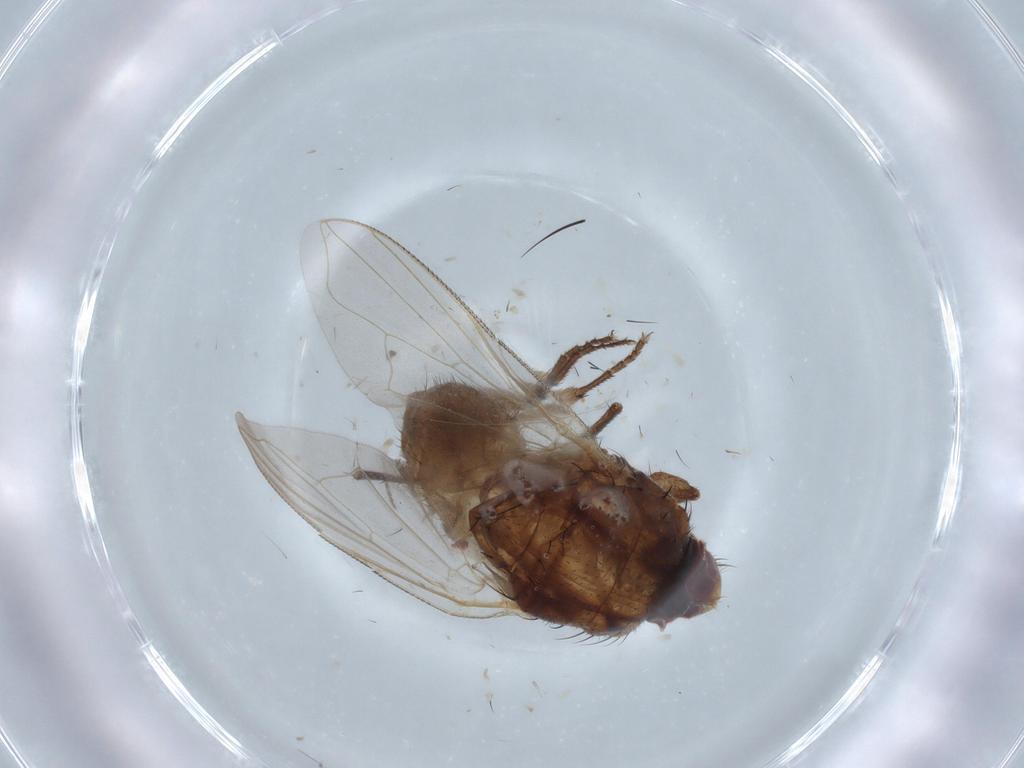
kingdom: Animalia
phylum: Arthropoda
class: Insecta
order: Diptera
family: Dolichopodidae
